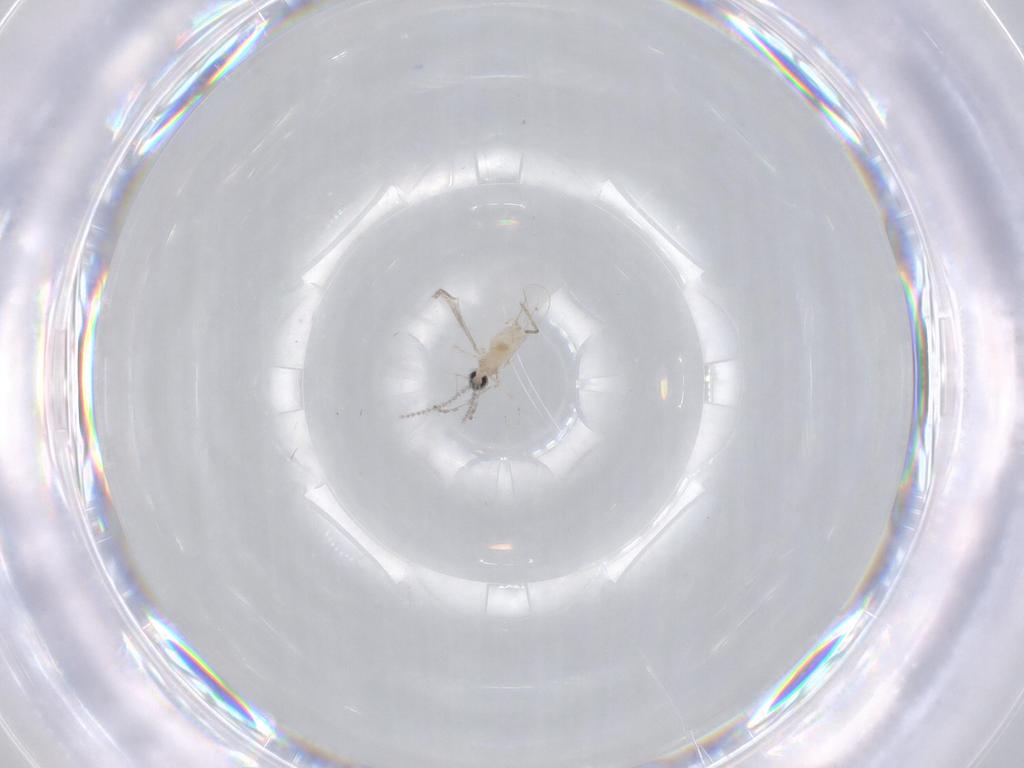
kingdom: Animalia
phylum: Arthropoda
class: Insecta
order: Diptera
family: Cecidomyiidae
